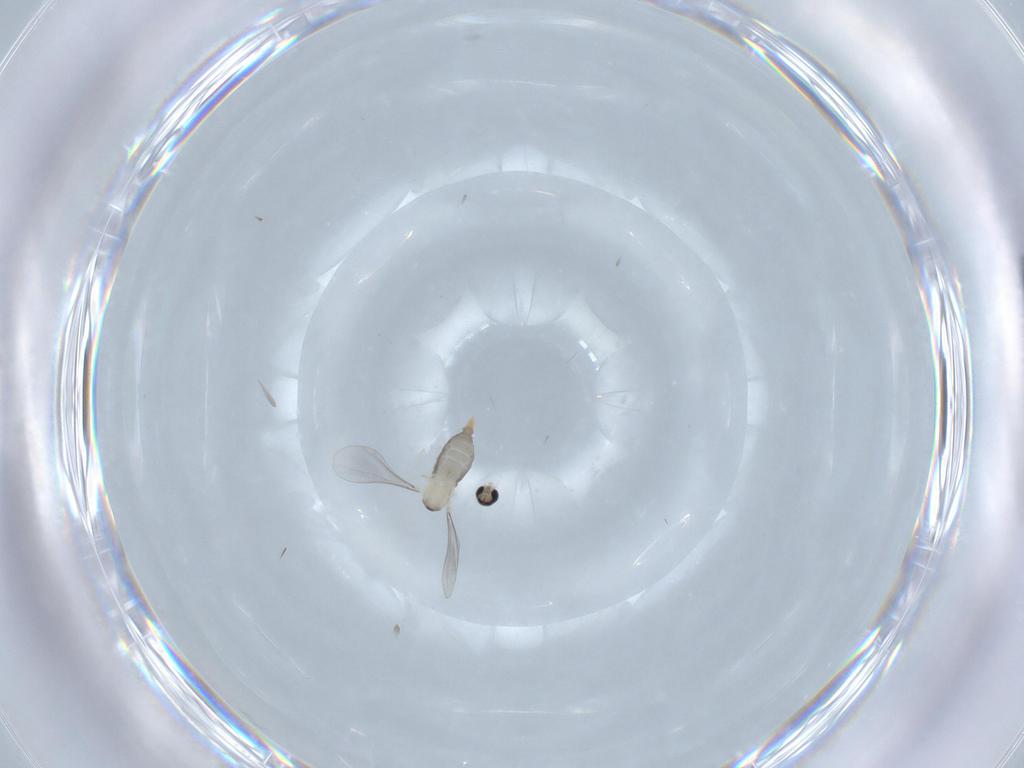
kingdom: Animalia
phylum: Arthropoda
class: Insecta
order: Diptera
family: Cecidomyiidae
